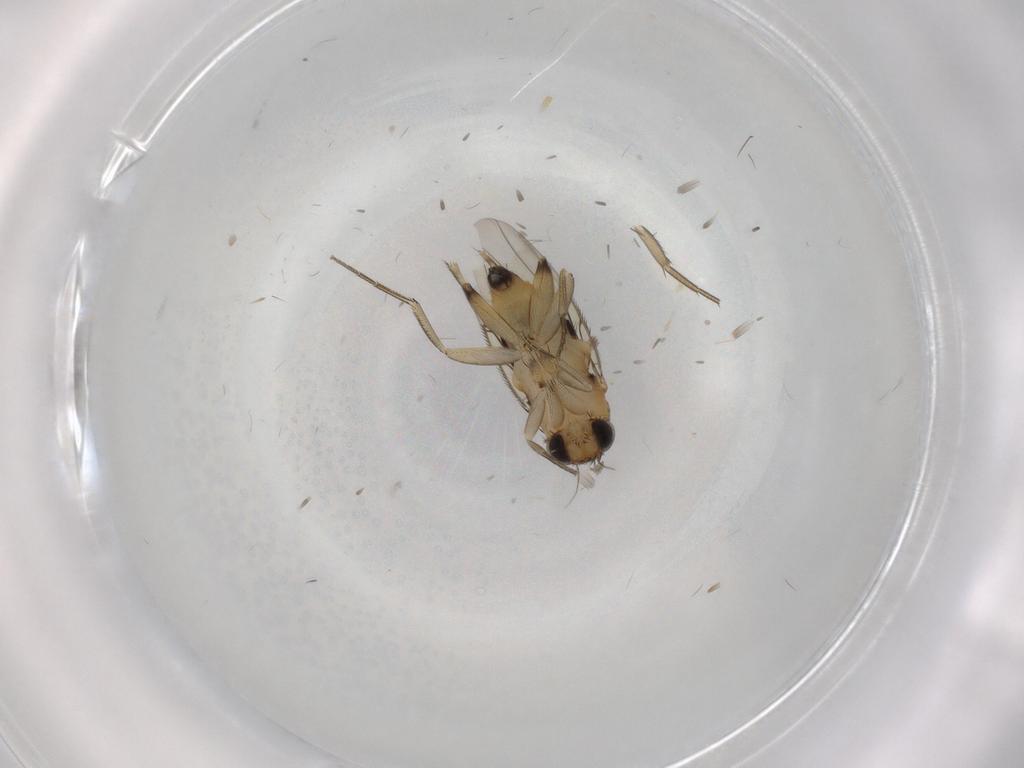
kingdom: Animalia
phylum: Arthropoda
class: Insecta
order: Diptera
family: Phoridae
